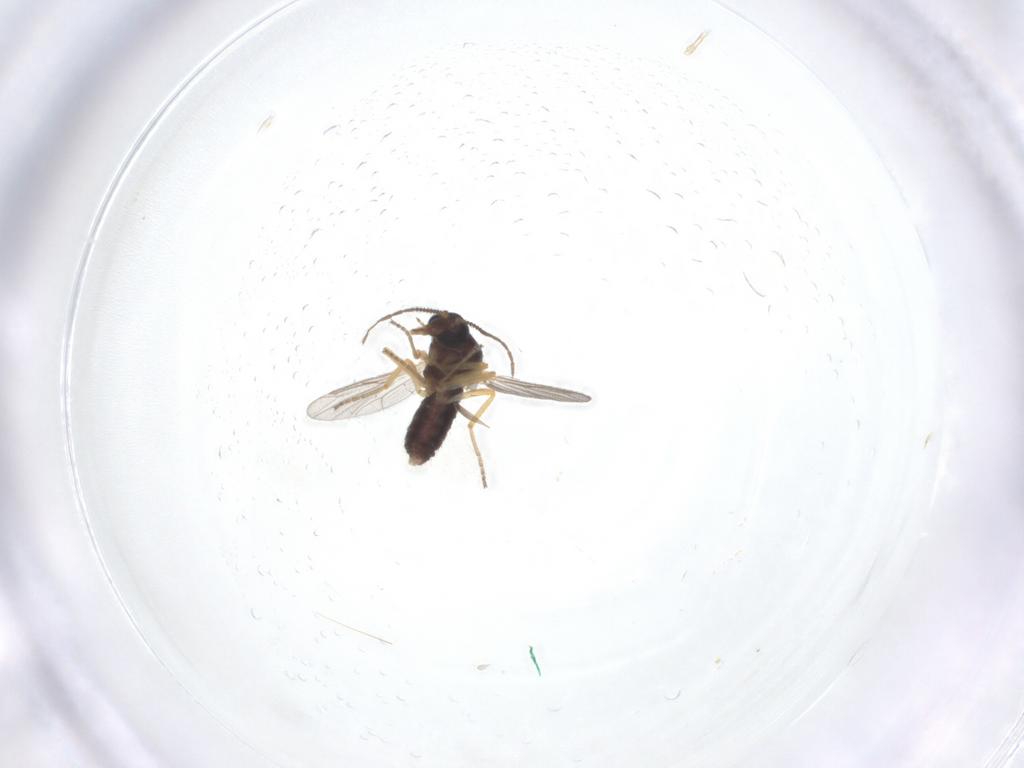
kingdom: Animalia
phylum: Arthropoda
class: Insecta
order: Diptera
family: Ceratopogonidae
